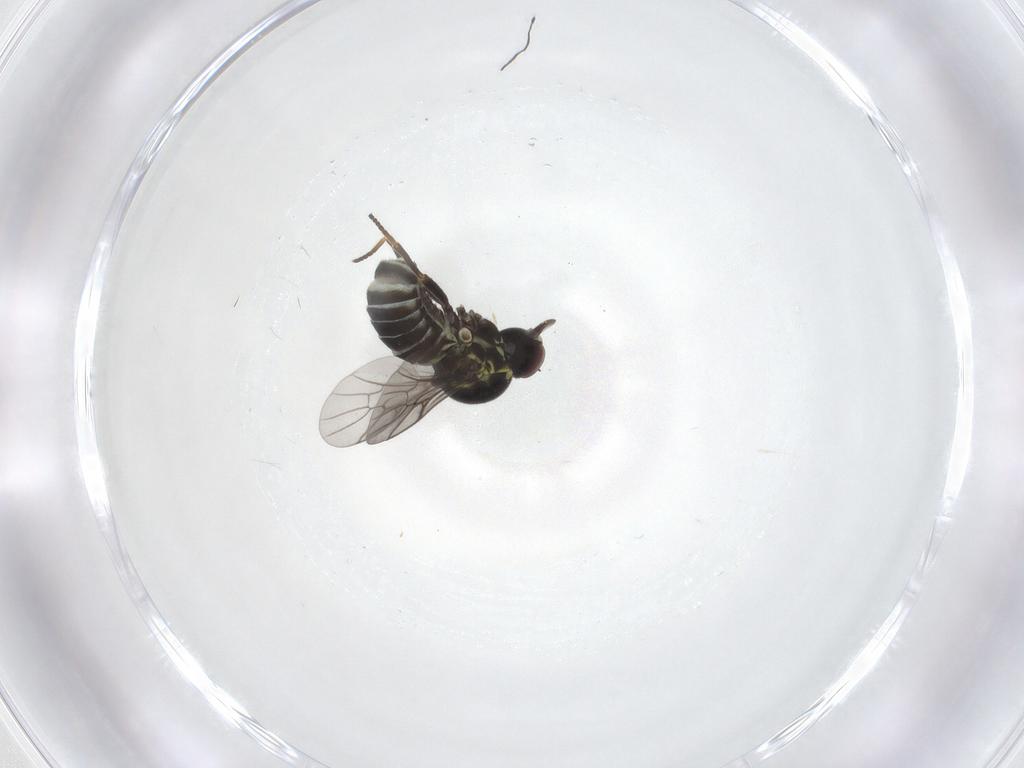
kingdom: Animalia
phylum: Arthropoda
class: Insecta
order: Diptera
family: Bombyliidae
